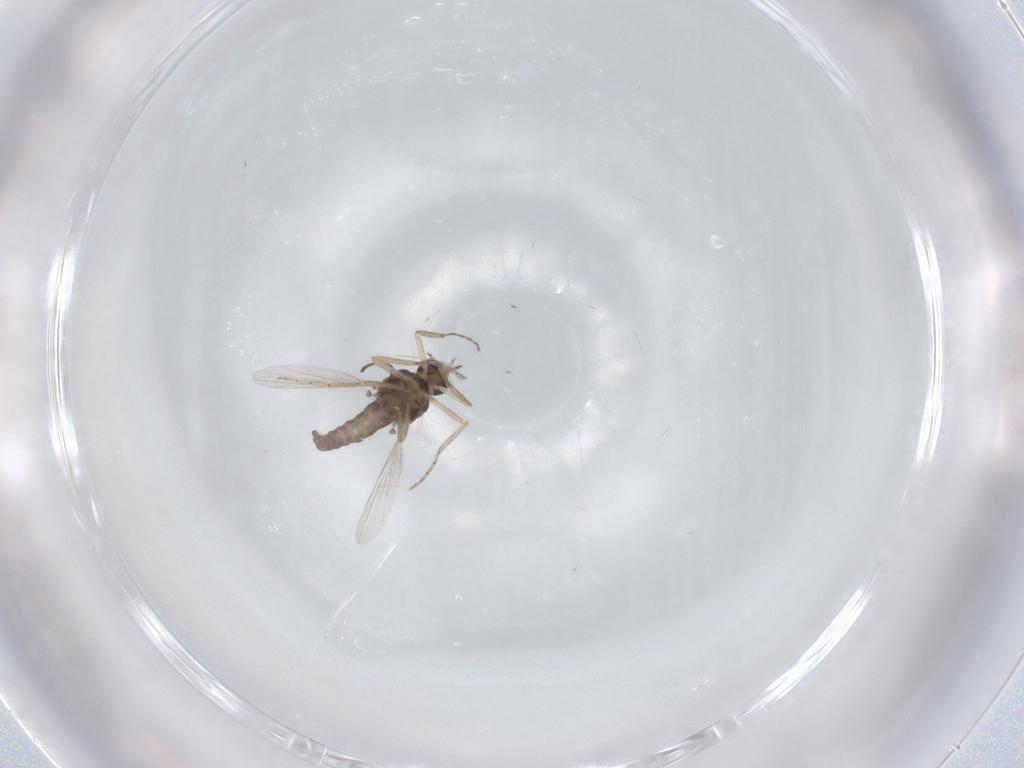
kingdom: Animalia
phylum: Arthropoda
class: Insecta
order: Diptera
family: Cecidomyiidae
